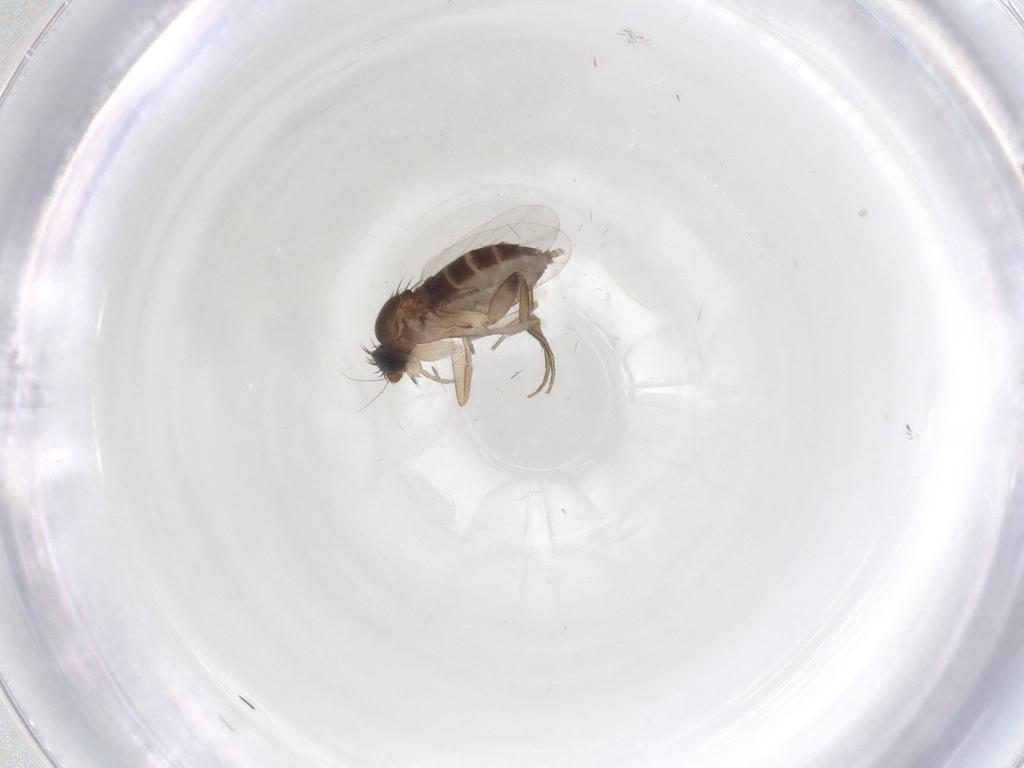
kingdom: Animalia
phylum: Arthropoda
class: Insecta
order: Diptera
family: Phoridae
